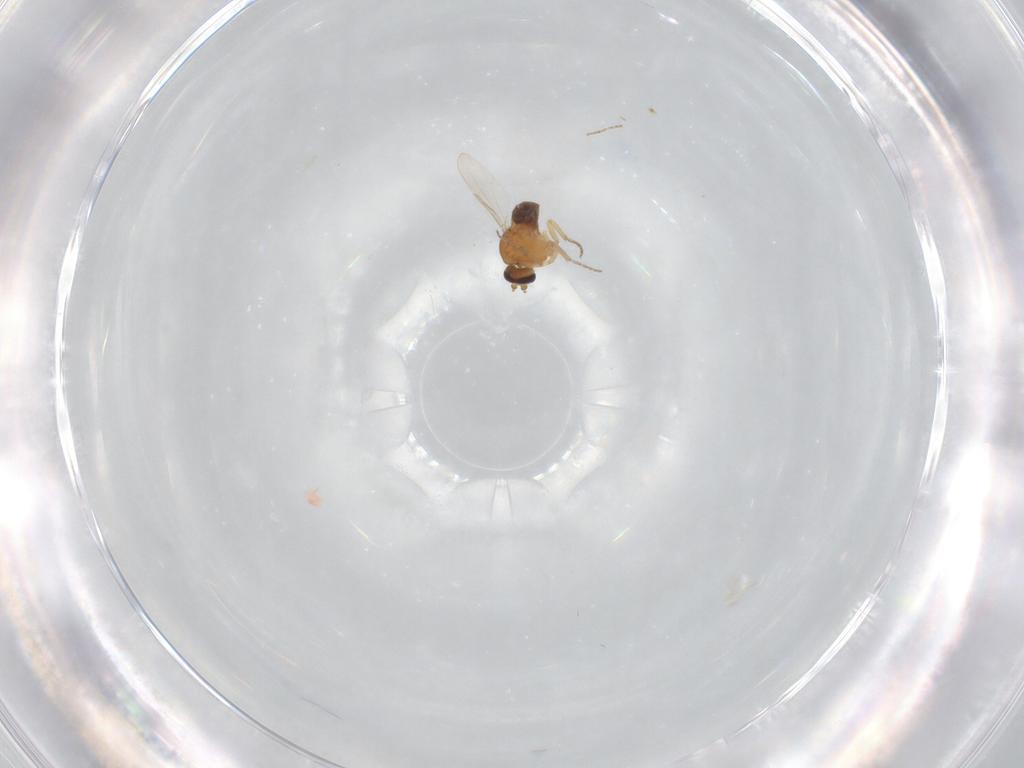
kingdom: Animalia
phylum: Arthropoda
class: Insecta
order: Diptera
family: Ceratopogonidae
